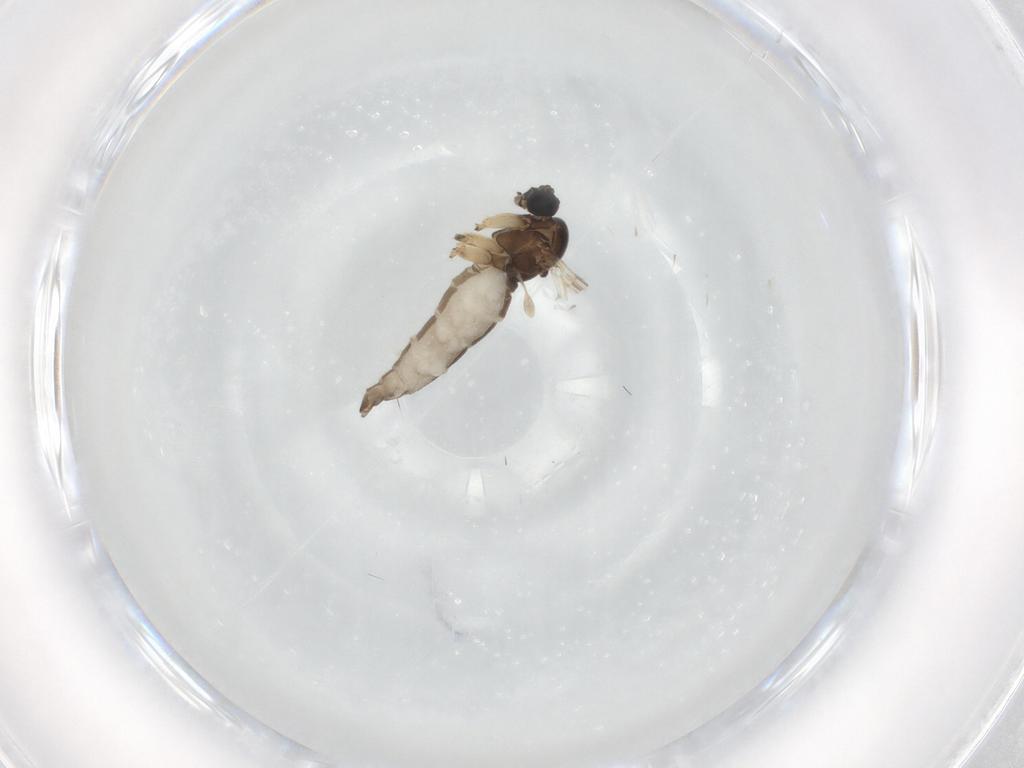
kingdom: Animalia
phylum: Arthropoda
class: Insecta
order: Diptera
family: Sciaridae
